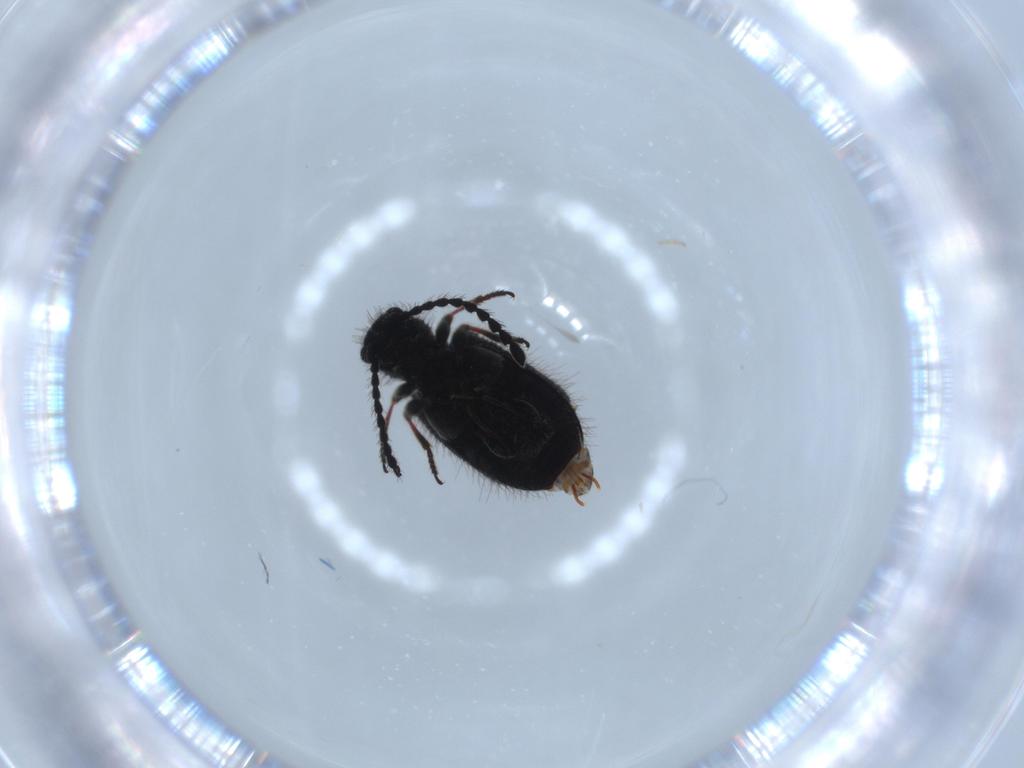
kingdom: Animalia
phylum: Arthropoda
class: Insecta
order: Coleoptera
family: Ptinidae
